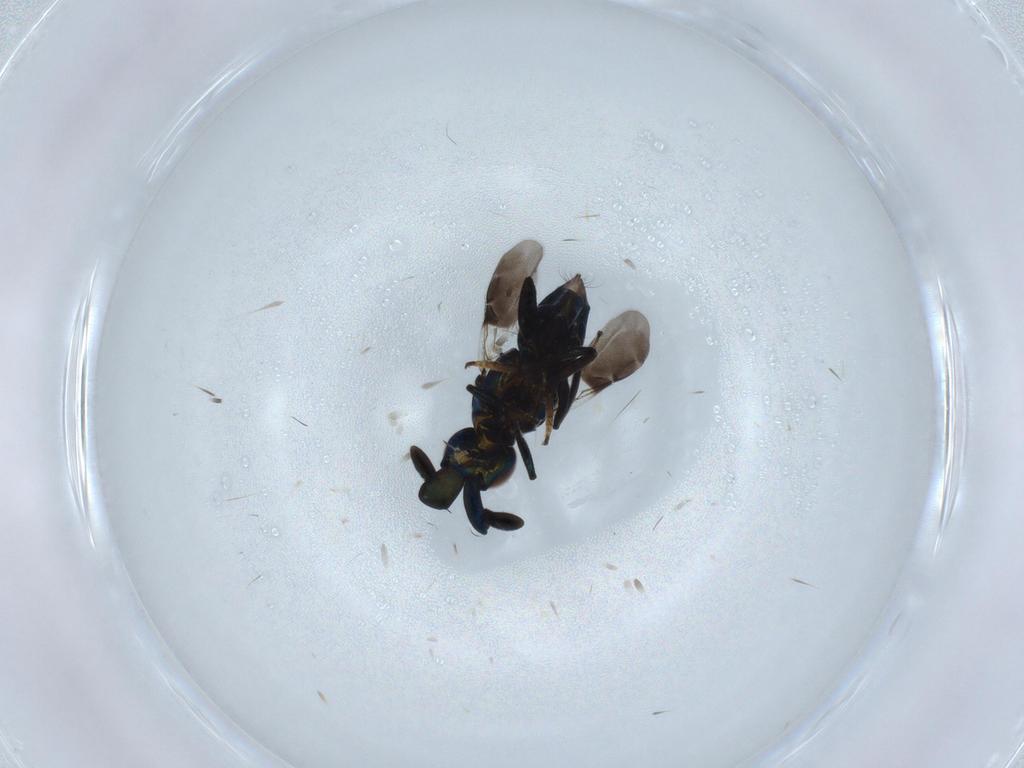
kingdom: Animalia
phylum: Arthropoda
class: Insecta
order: Hymenoptera
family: Encyrtidae
